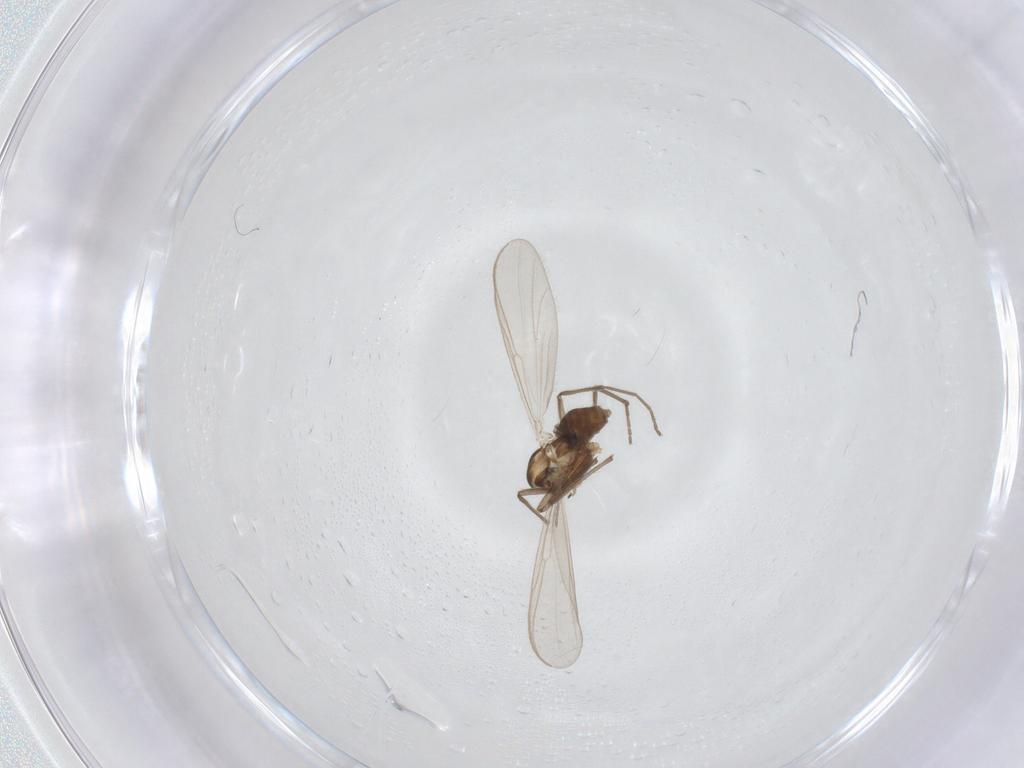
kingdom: Animalia
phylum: Arthropoda
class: Insecta
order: Diptera
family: Chironomidae
